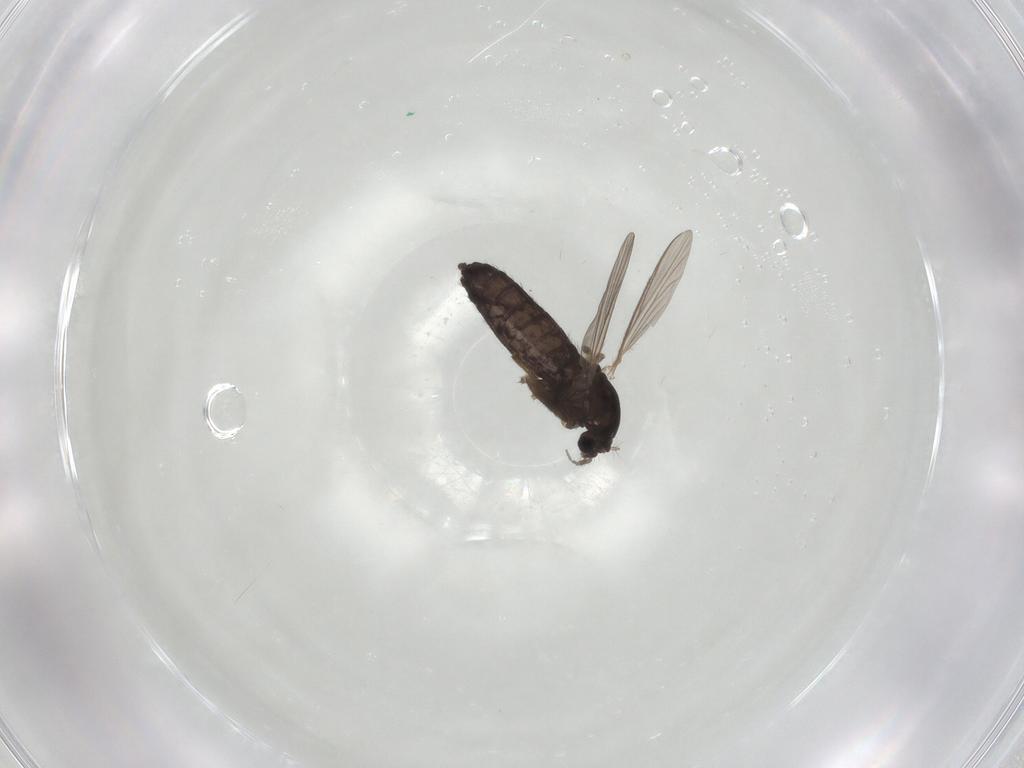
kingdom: Animalia
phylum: Arthropoda
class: Insecta
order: Diptera
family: Chironomidae
